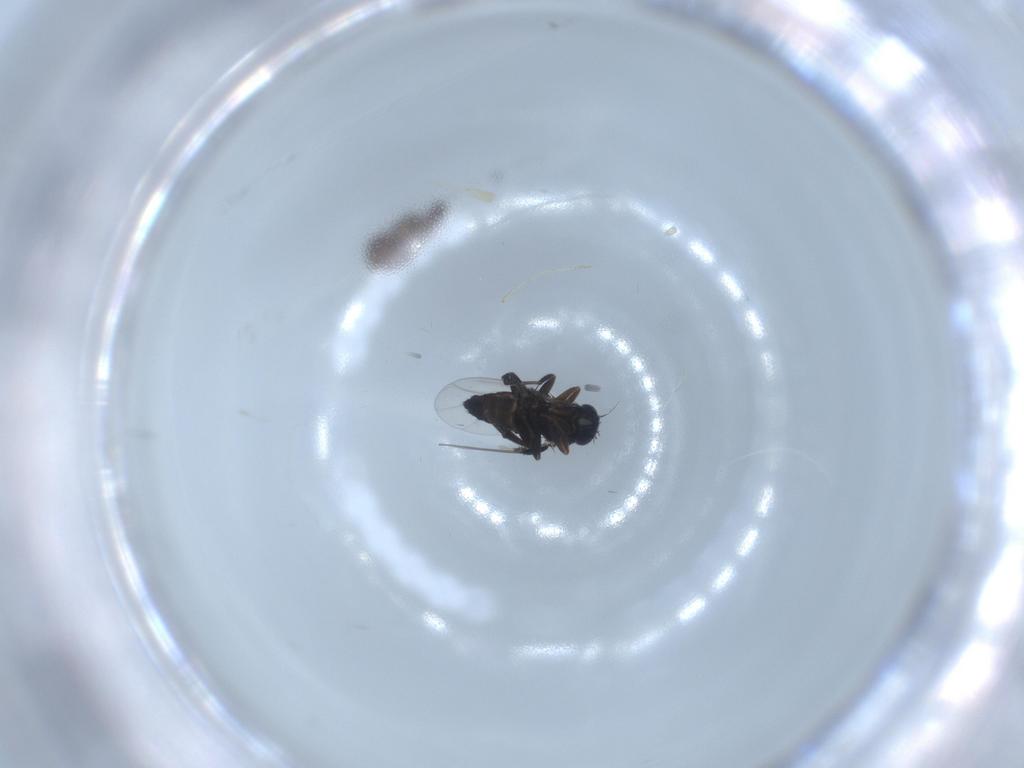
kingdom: Animalia
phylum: Arthropoda
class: Insecta
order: Diptera
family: Phoridae
